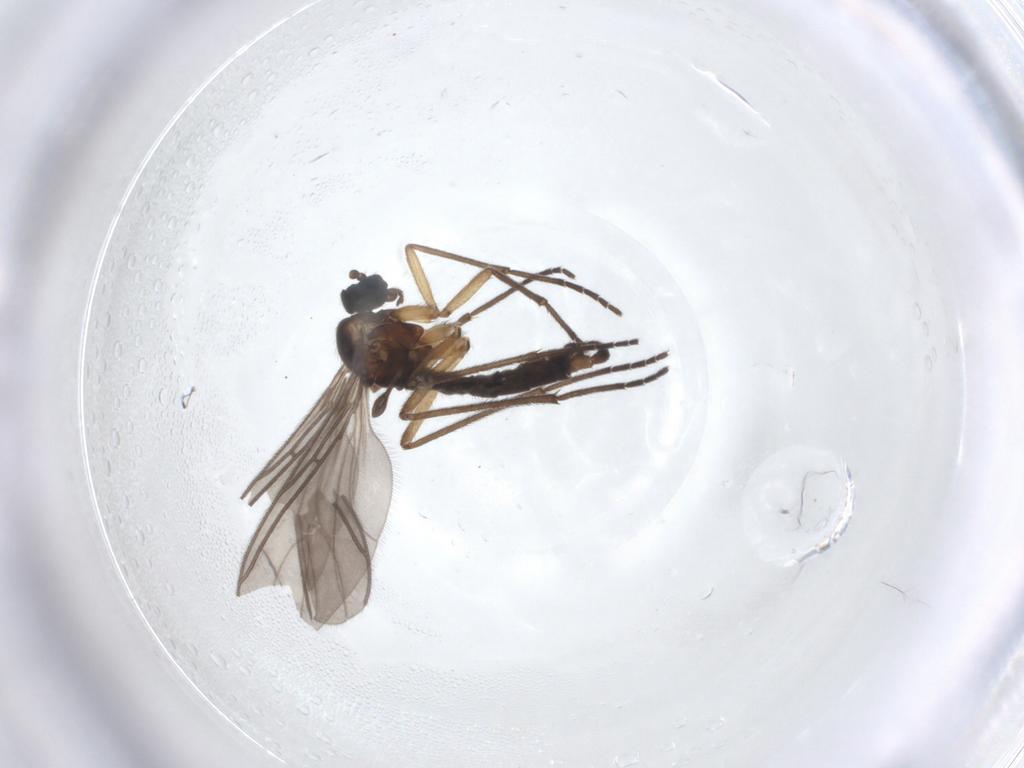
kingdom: Animalia
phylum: Arthropoda
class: Insecta
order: Diptera
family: Sciaridae
